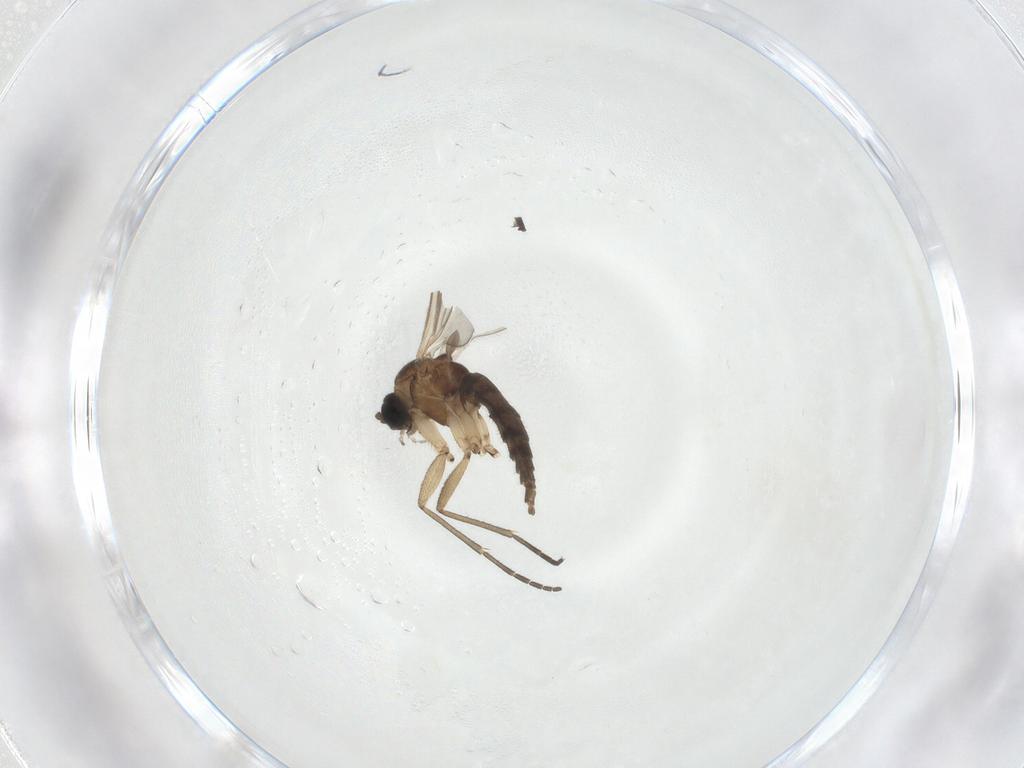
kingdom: Animalia
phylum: Arthropoda
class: Insecta
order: Diptera
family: Sciaridae
